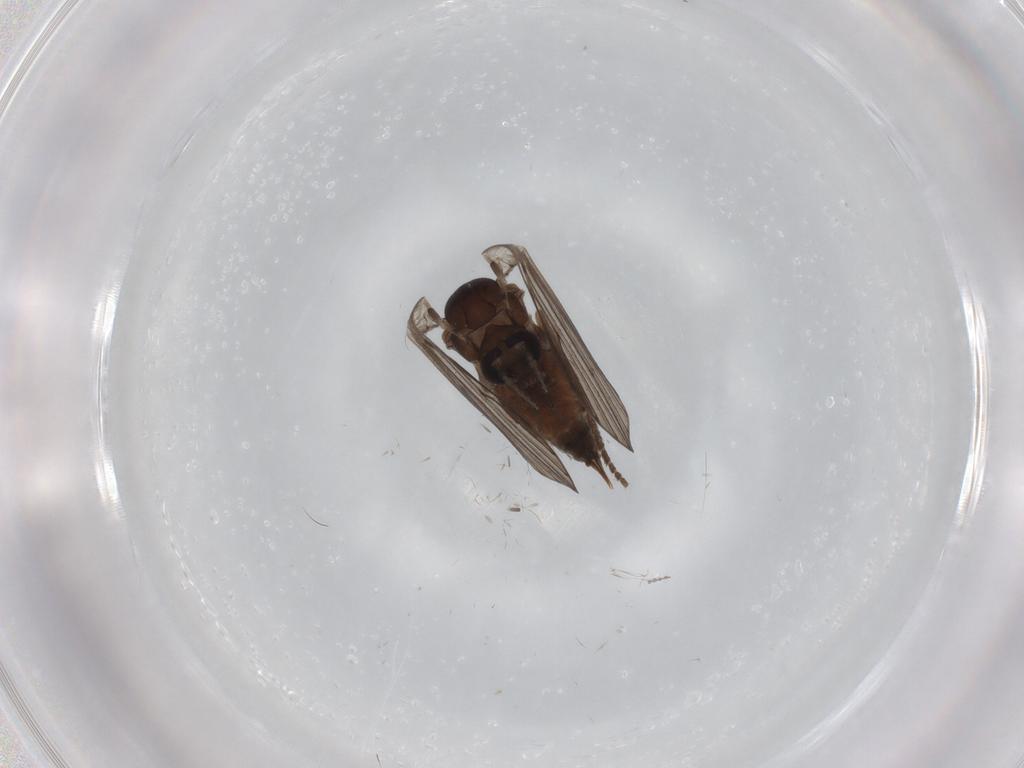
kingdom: Animalia
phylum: Arthropoda
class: Insecta
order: Diptera
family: Psychodidae
